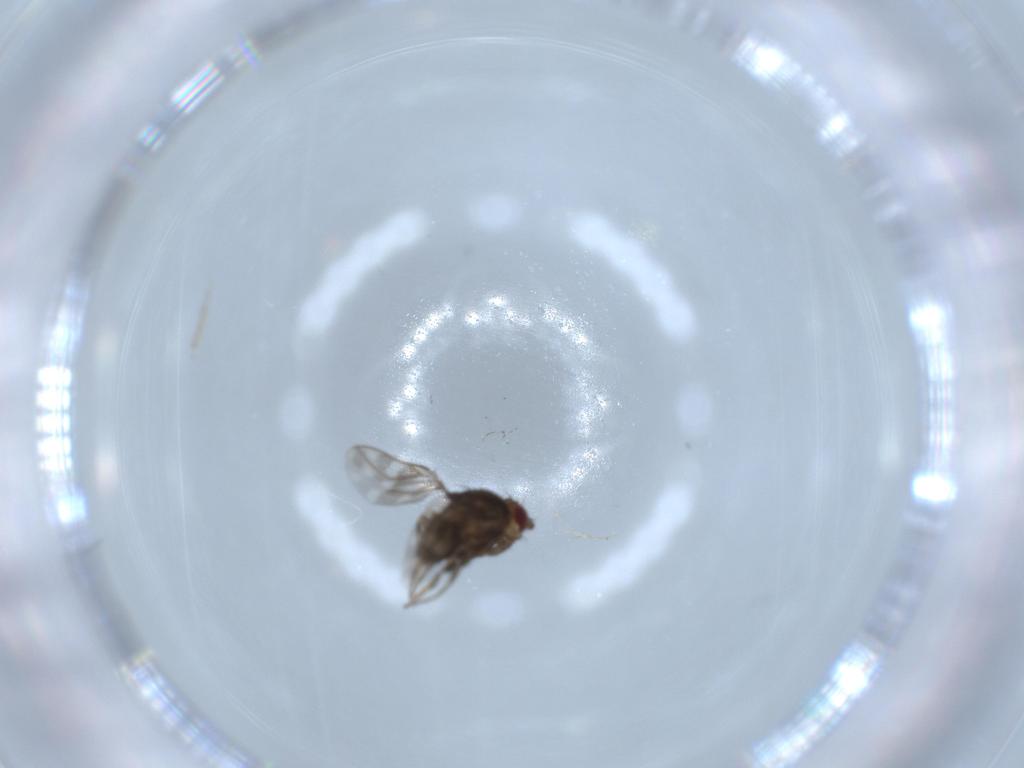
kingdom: Animalia
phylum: Arthropoda
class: Insecta
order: Diptera
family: Sphaeroceridae
